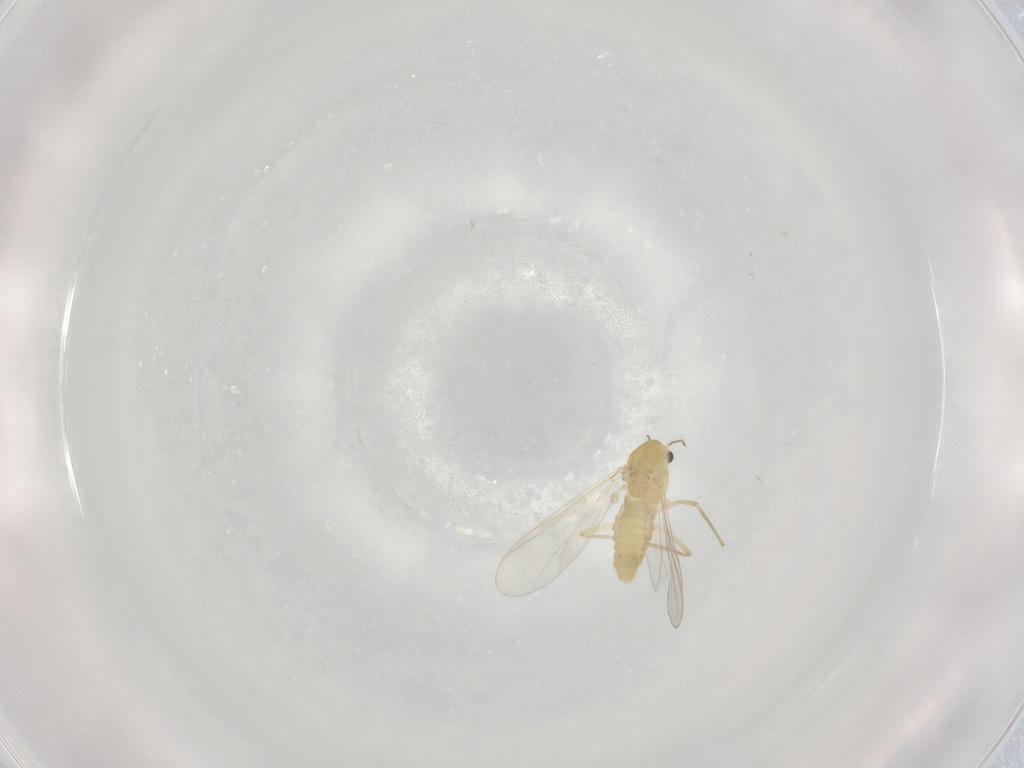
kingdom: Animalia
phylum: Arthropoda
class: Insecta
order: Diptera
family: Chironomidae
